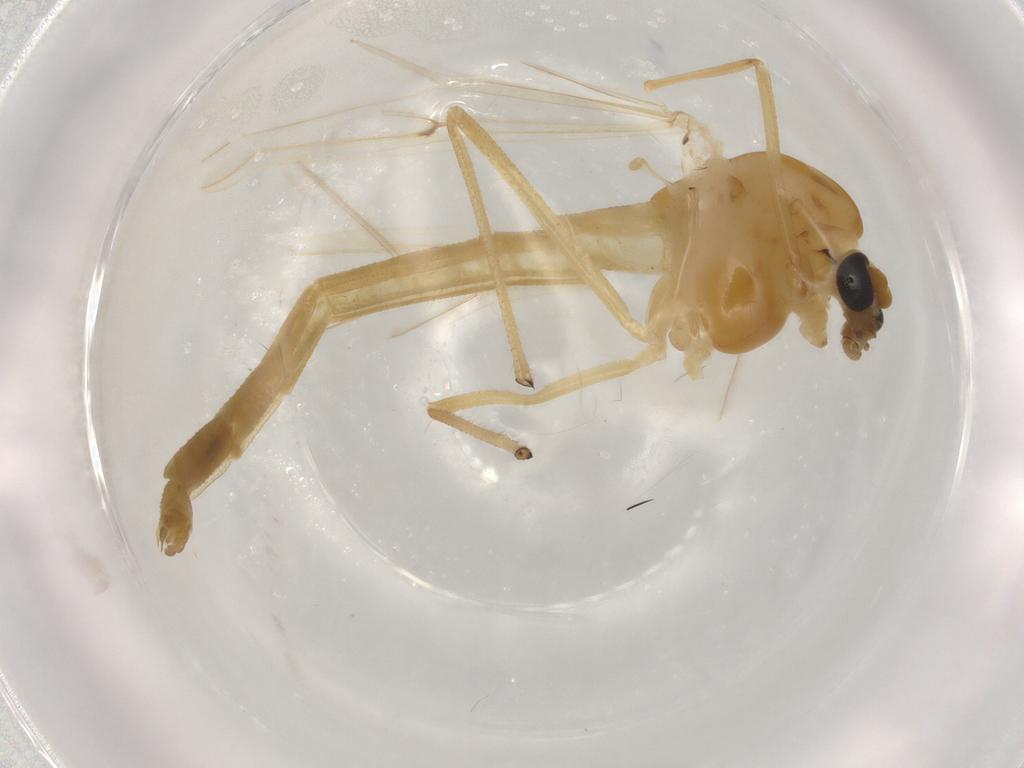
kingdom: Animalia
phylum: Arthropoda
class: Insecta
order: Diptera
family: Chironomidae
